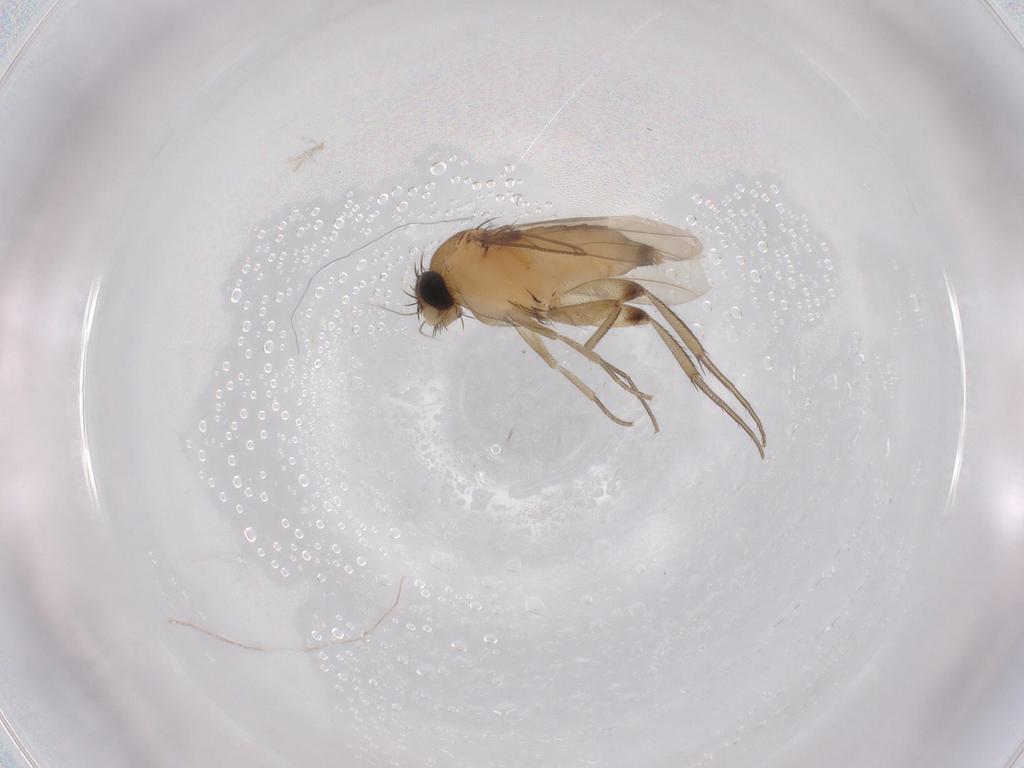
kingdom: Animalia
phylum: Arthropoda
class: Insecta
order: Diptera
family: Phoridae
